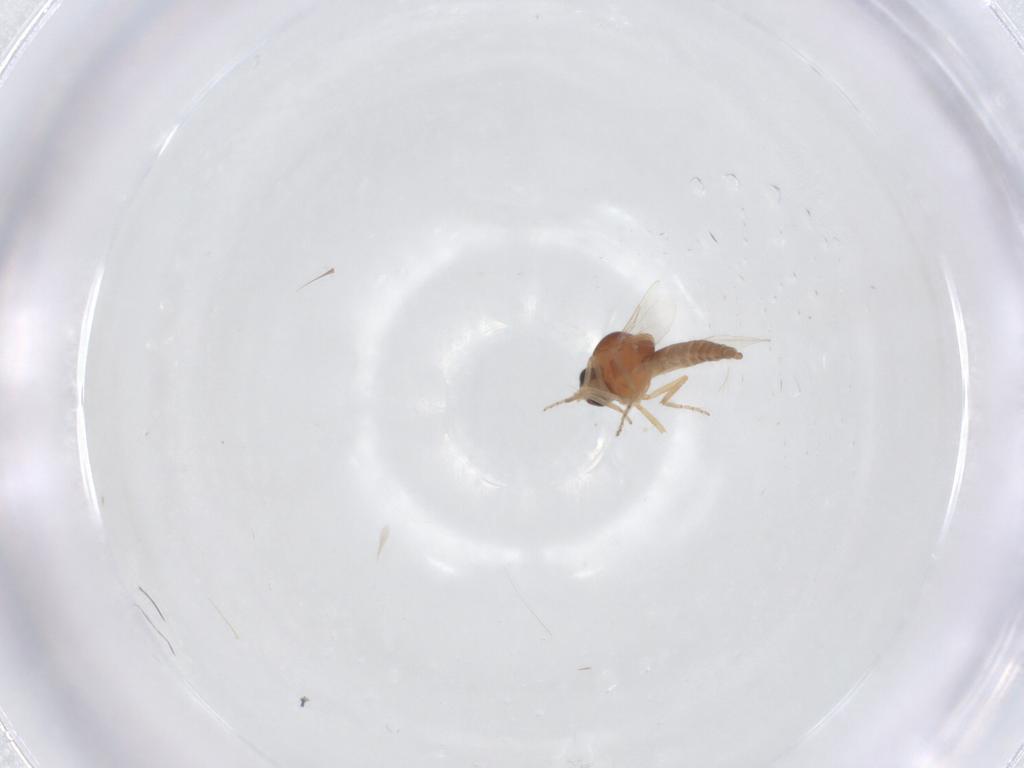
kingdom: Animalia
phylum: Arthropoda
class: Insecta
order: Diptera
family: Ceratopogonidae
